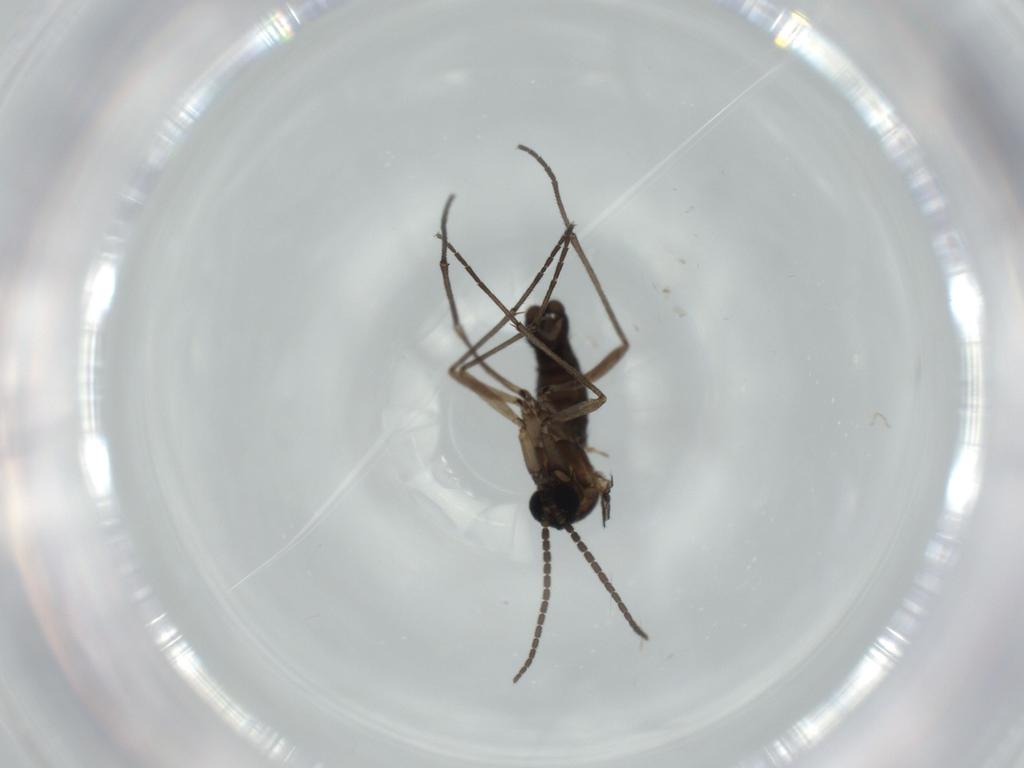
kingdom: Animalia
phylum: Arthropoda
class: Insecta
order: Diptera
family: Sciaridae
